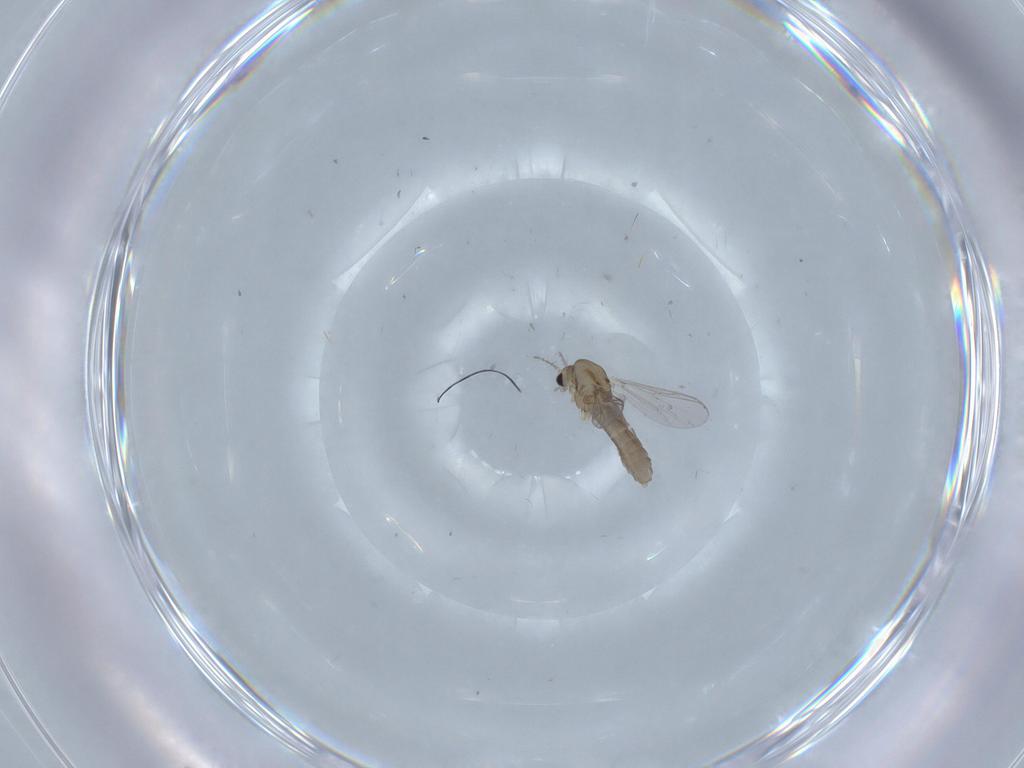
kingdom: Animalia
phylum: Arthropoda
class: Insecta
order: Diptera
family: Chironomidae
